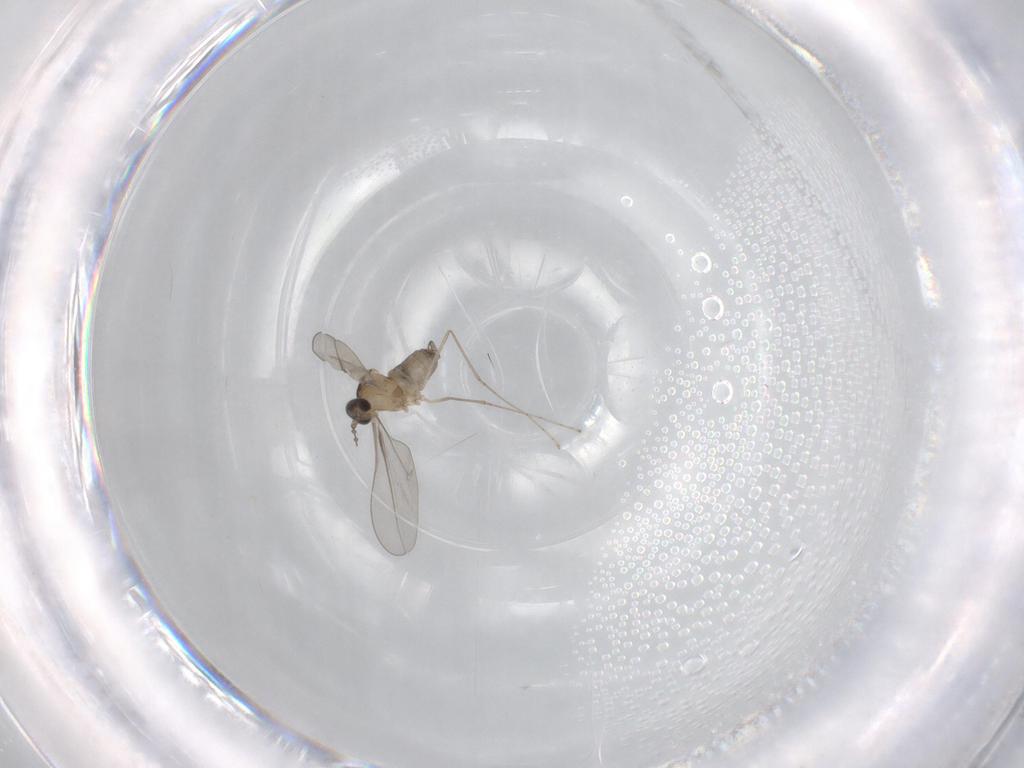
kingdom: Animalia
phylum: Arthropoda
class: Insecta
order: Diptera
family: Cecidomyiidae
